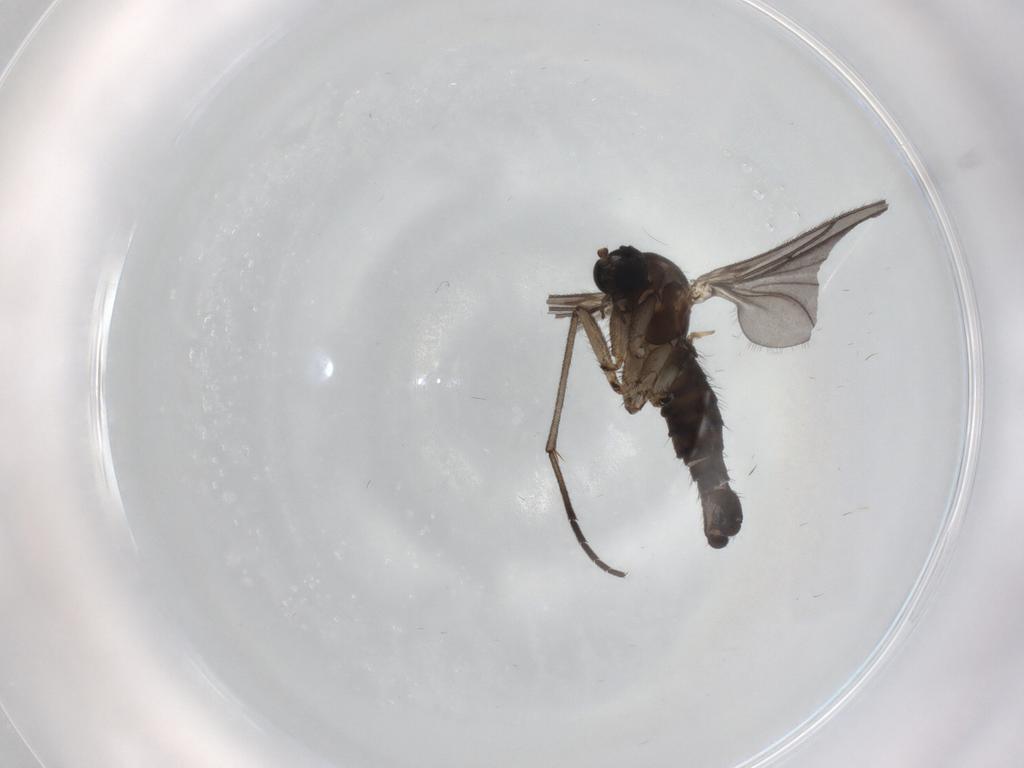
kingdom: Animalia
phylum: Arthropoda
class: Insecta
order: Diptera
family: Sciaridae
